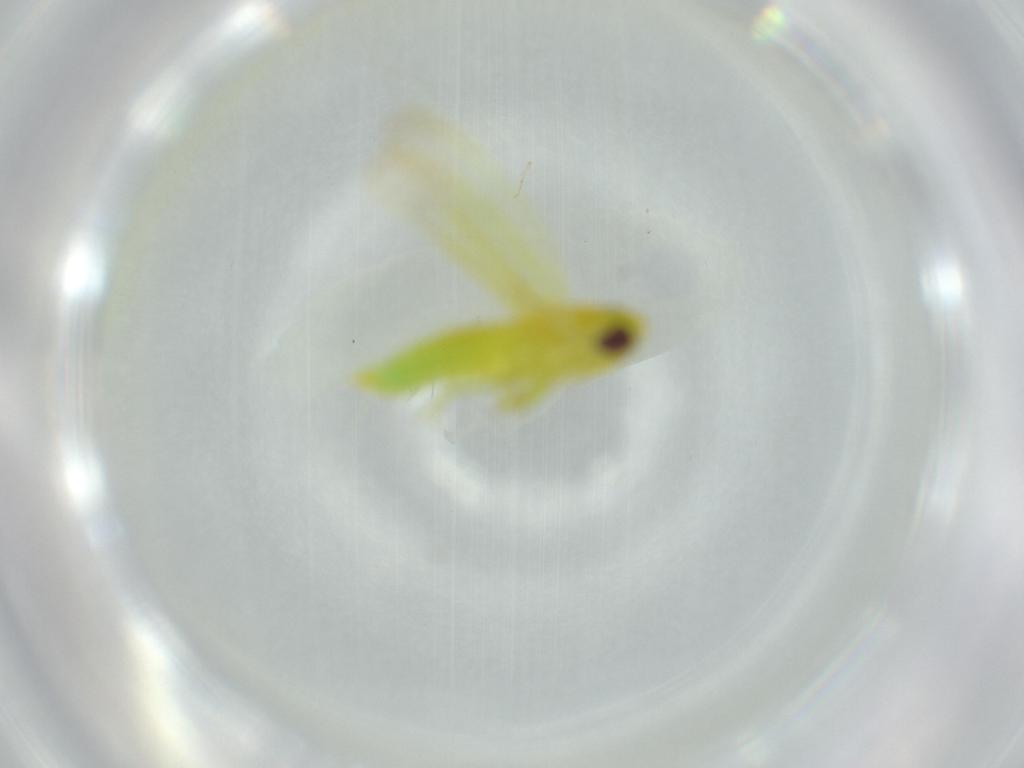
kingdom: Animalia
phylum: Arthropoda
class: Insecta
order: Hemiptera
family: Cicadellidae
